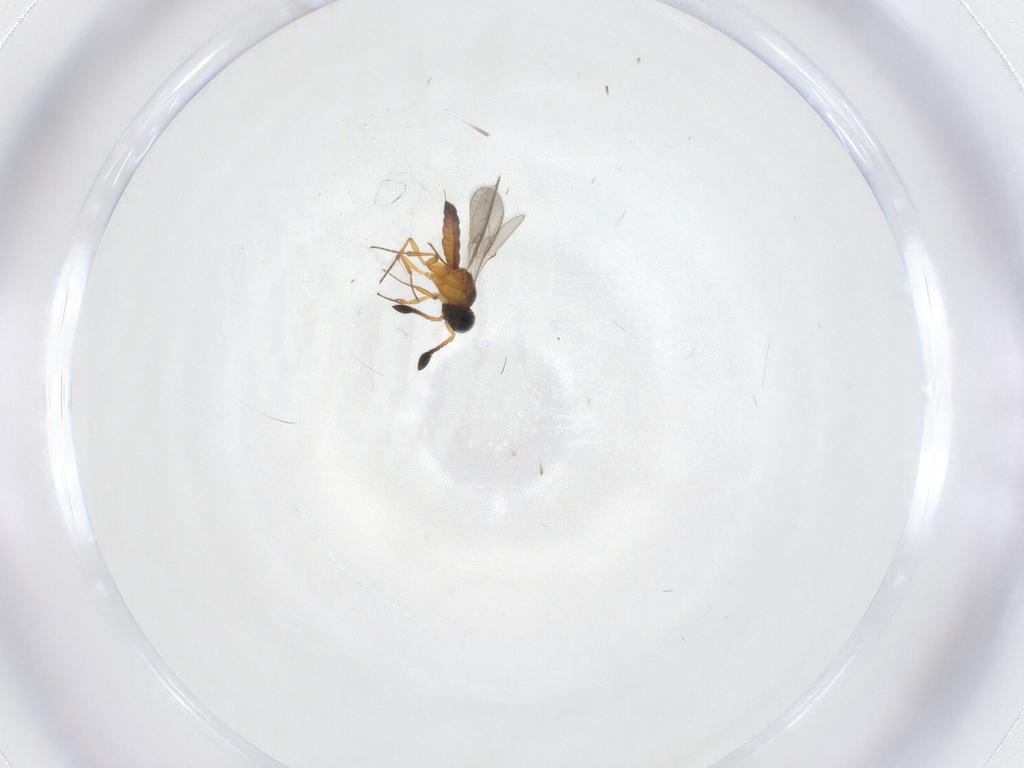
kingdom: Animalia
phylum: Arthropoda
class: Insecta
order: Hymenoptera
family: Scelionidae
